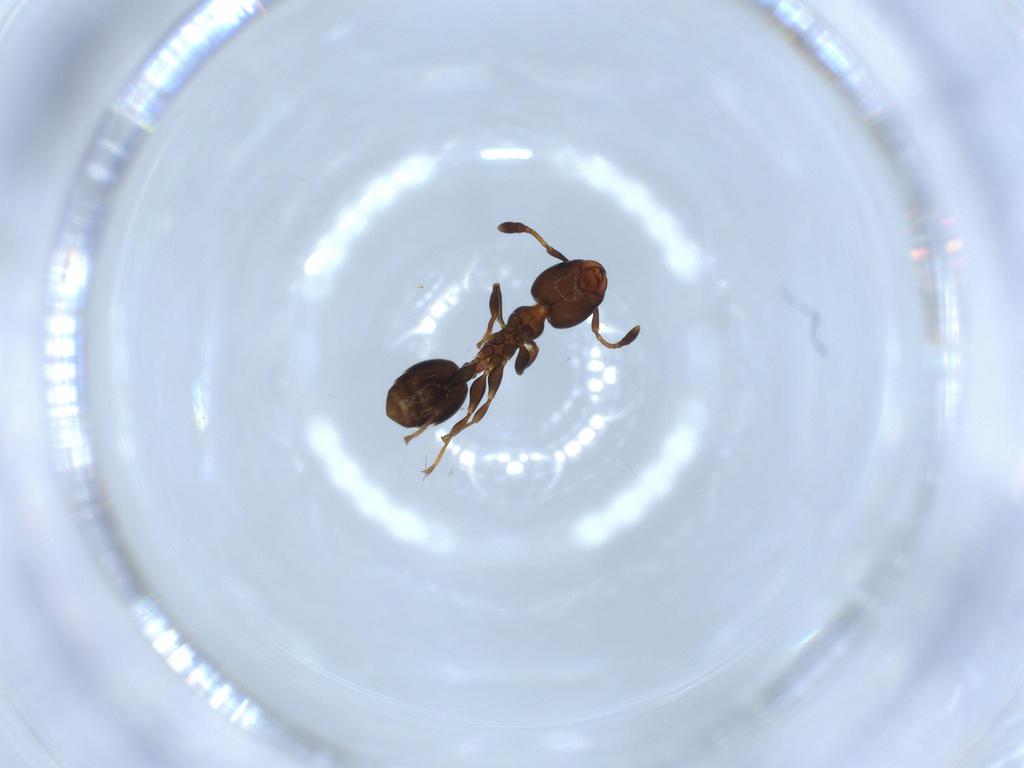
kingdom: Animalia
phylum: Arthropoda
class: Insecta
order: Hymenoptera
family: Formicidae
